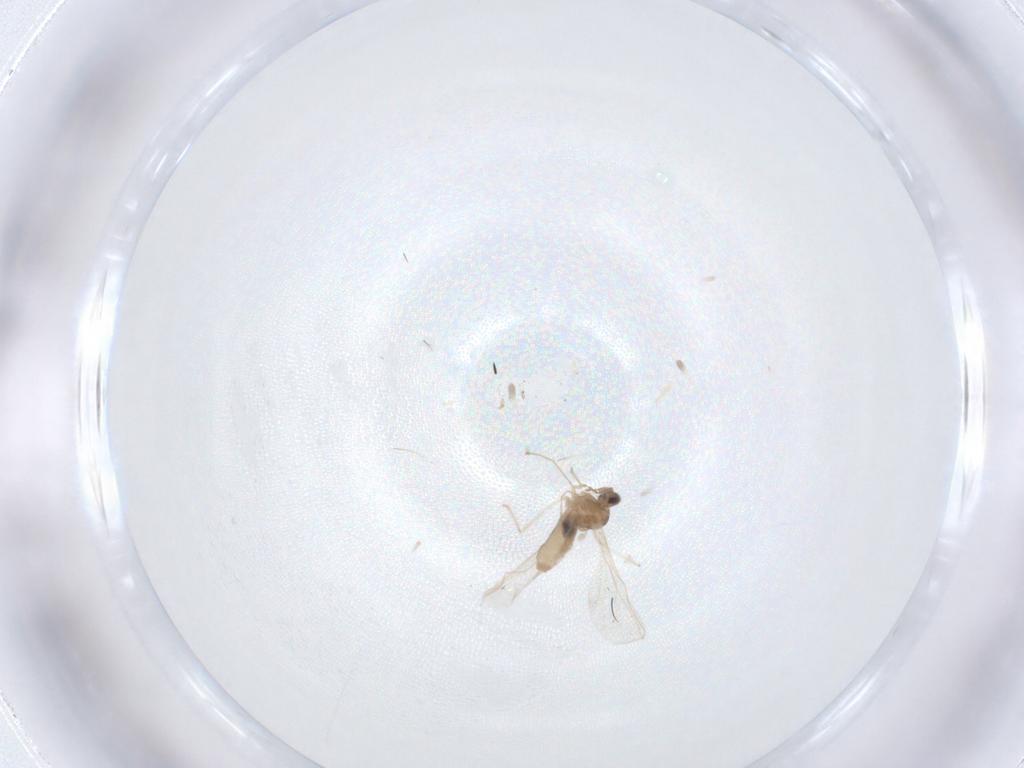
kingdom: Animalia
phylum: Arthropoda
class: Insecta
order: Diptera
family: Cecidomyiidae
